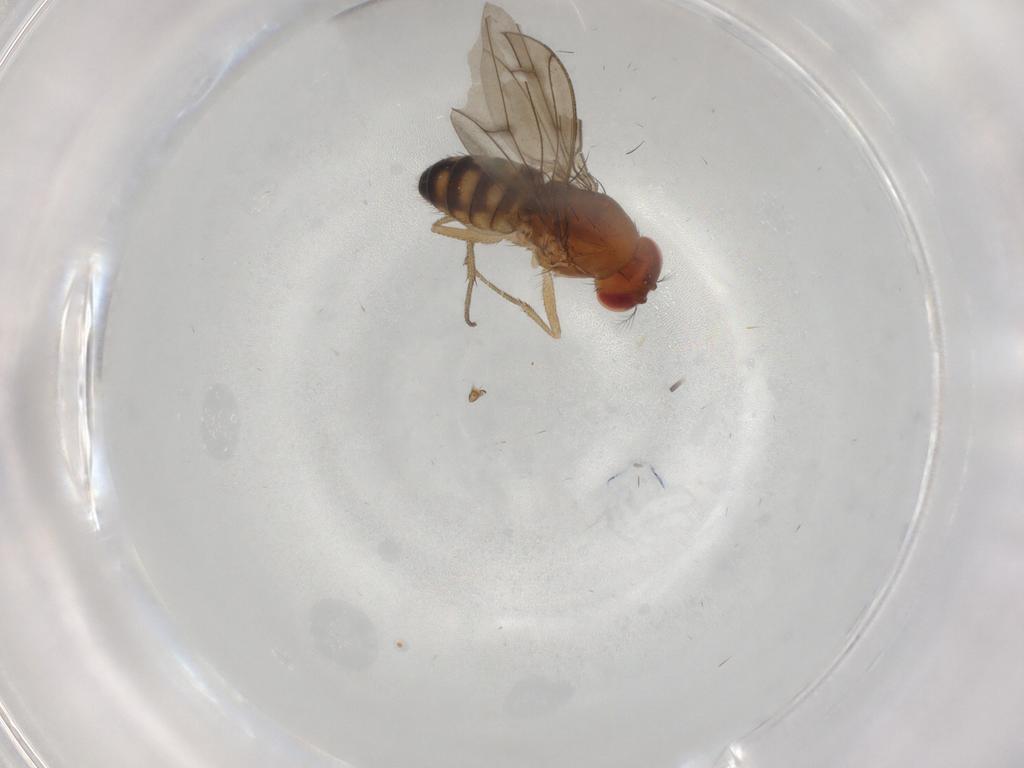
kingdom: Animalia
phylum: Arthropoda
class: Insecta
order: Diptera
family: Drosophilidae
